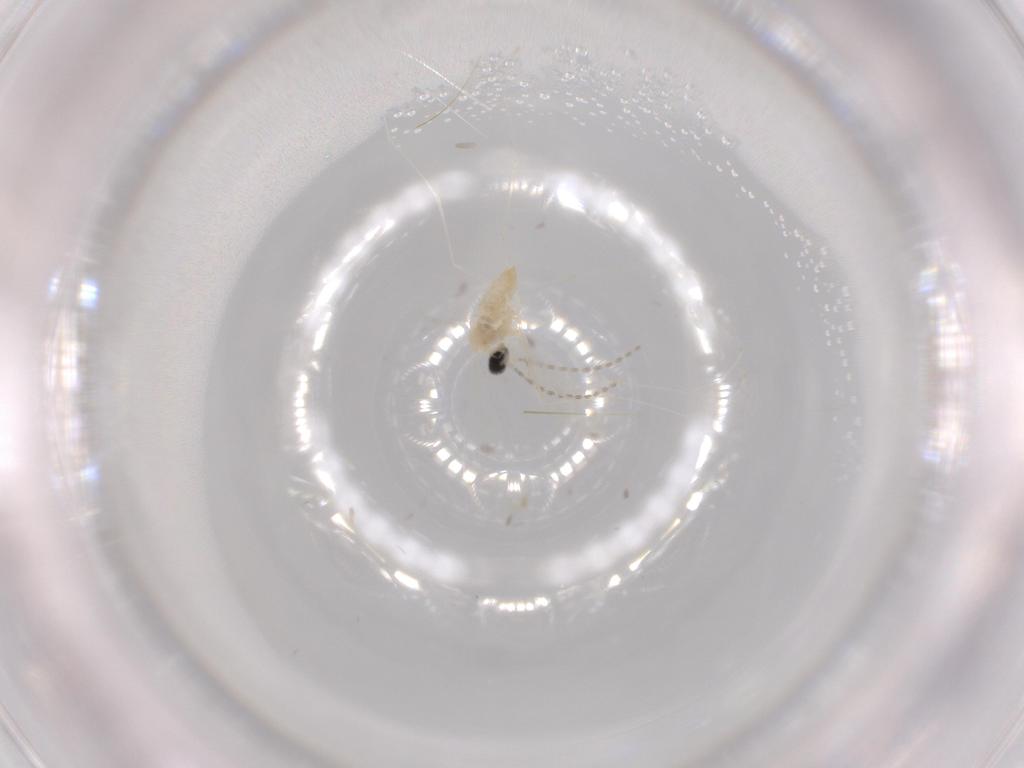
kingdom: Animalia
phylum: Arthropoda
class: Insecta
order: Diptera
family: Cecidomyiidae
